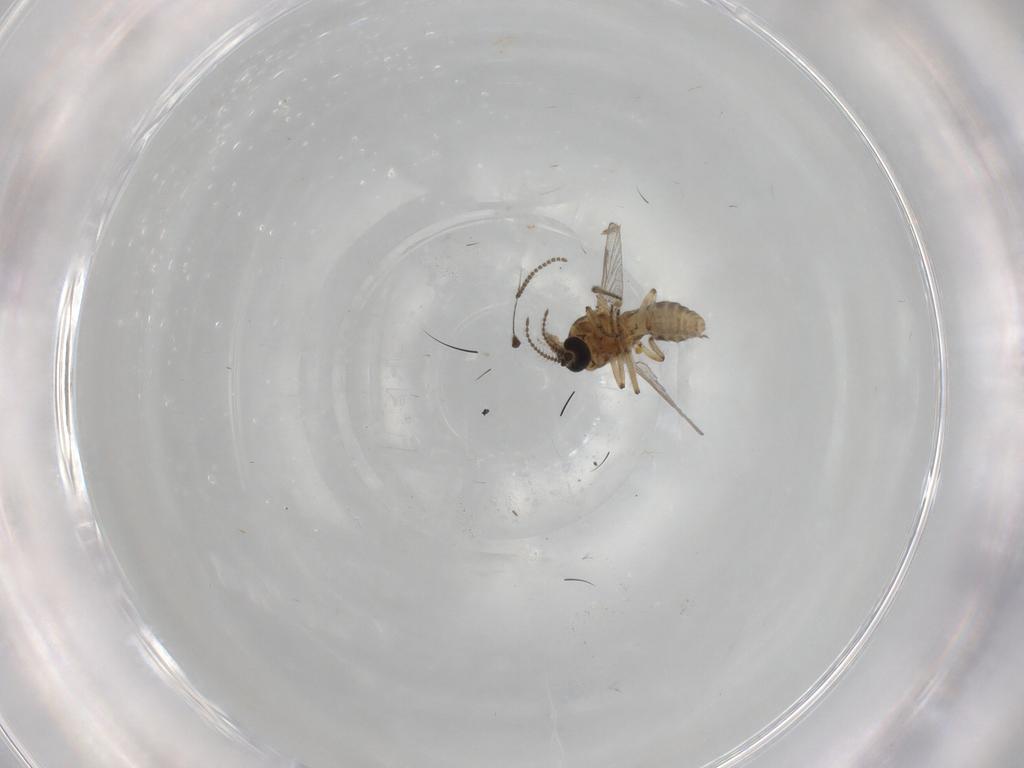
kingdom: Animalia
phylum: Arthropoda
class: Insecta
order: Diptera
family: Ceratopogonidae
